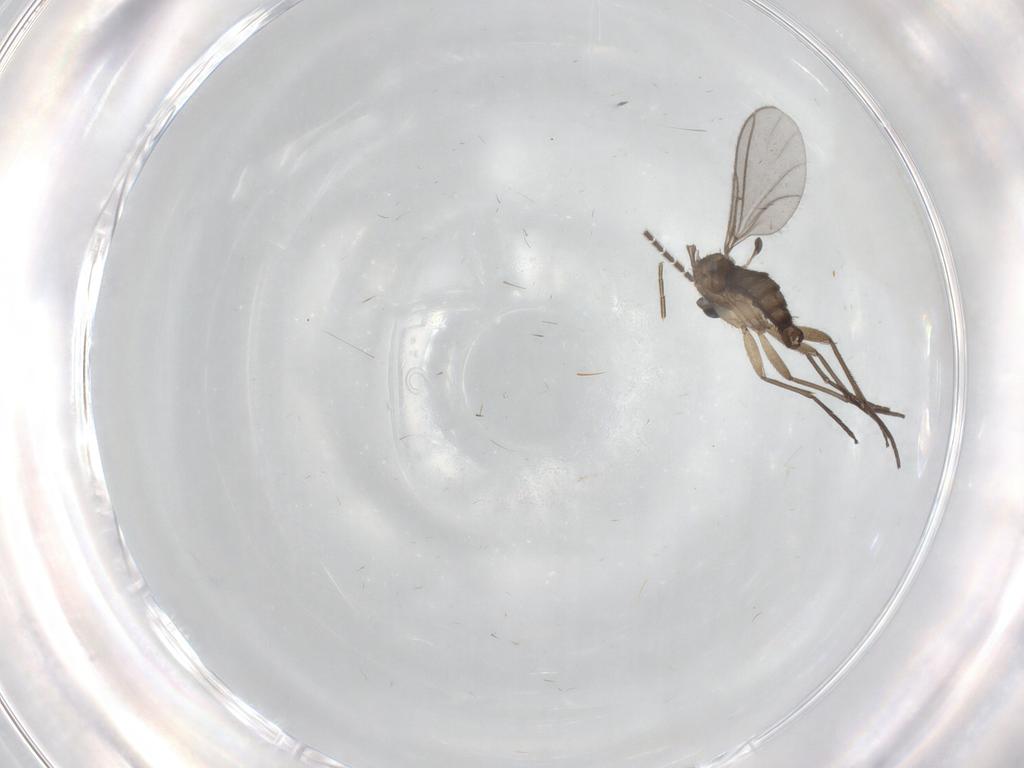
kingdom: Animalia
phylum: Arthropoda
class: Insecta
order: Diptera
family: Sciaridae
